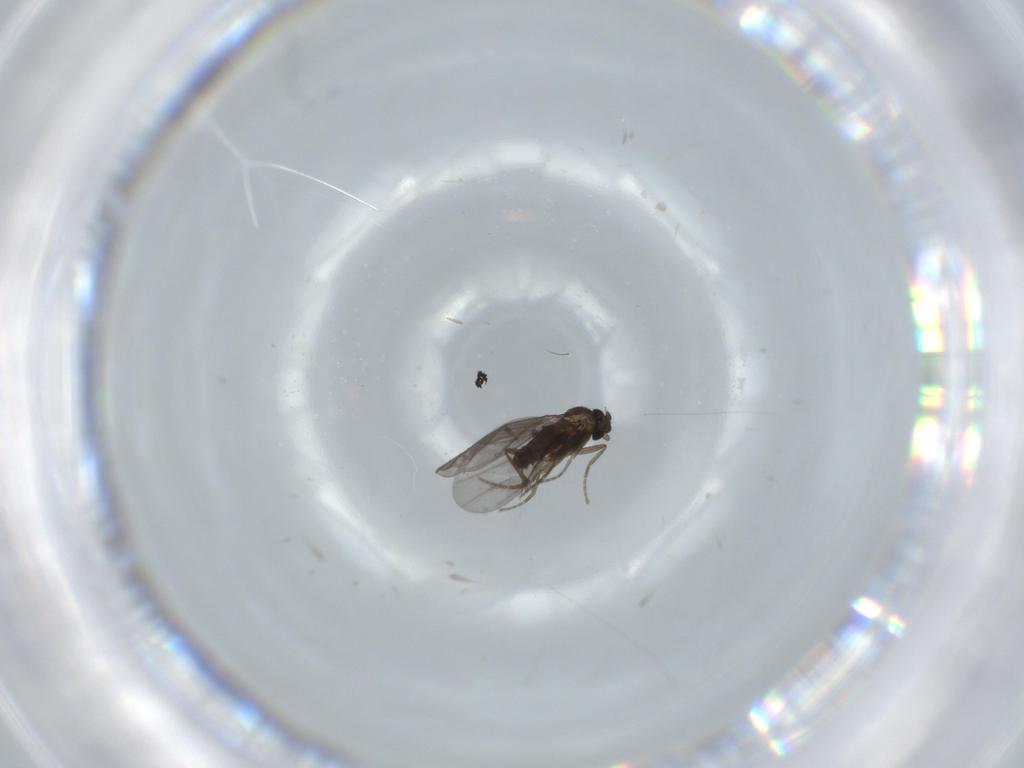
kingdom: Animalia
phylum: Arthropoda
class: Insecta
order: Diptera
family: Phoridae
